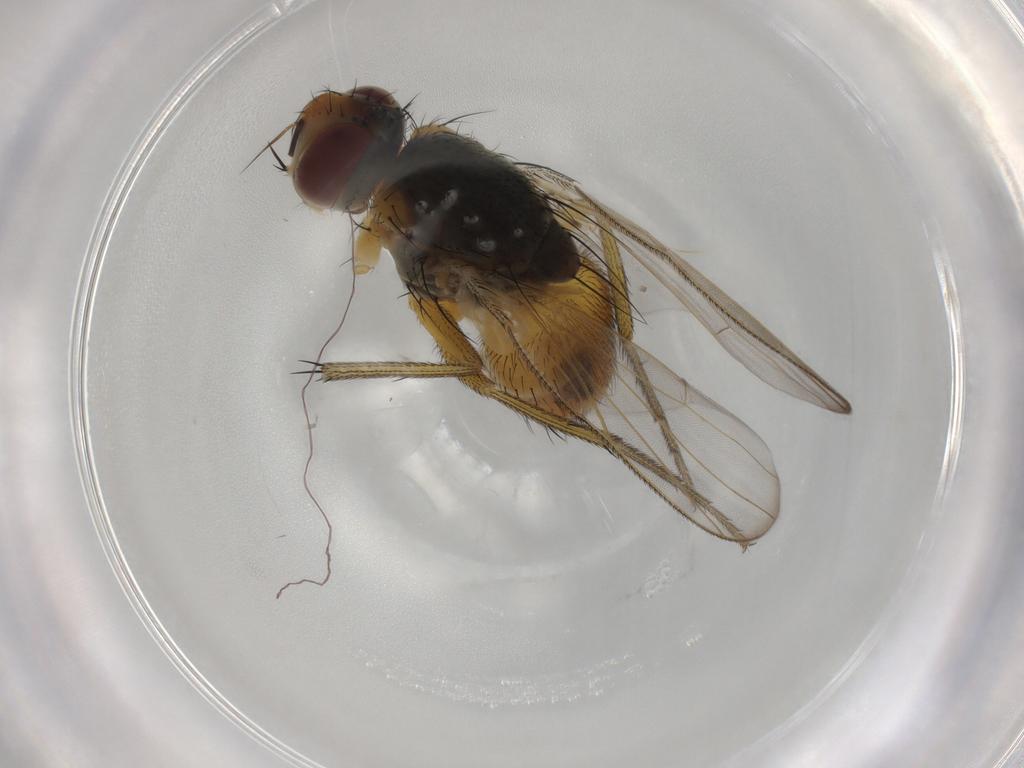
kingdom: Animalia
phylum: Arthropoda
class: Insecta
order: Diptera
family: Muscidae
